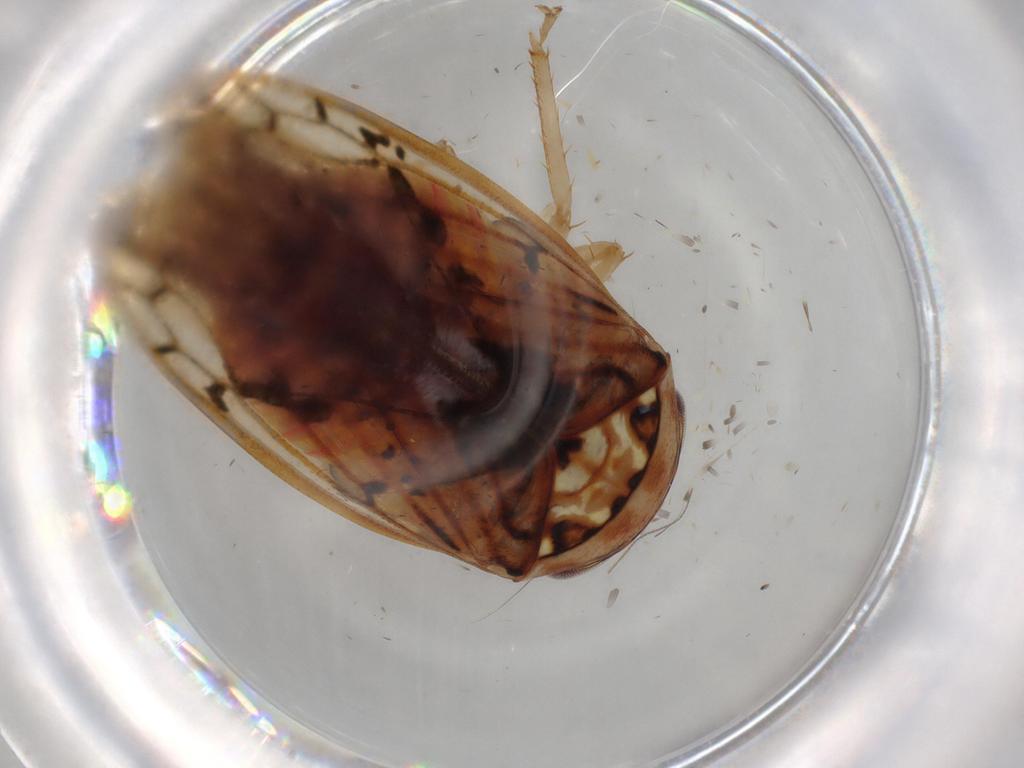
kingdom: Animalia
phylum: Arthropoda
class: Insecta
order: Hemiptera
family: Cicadellidae
